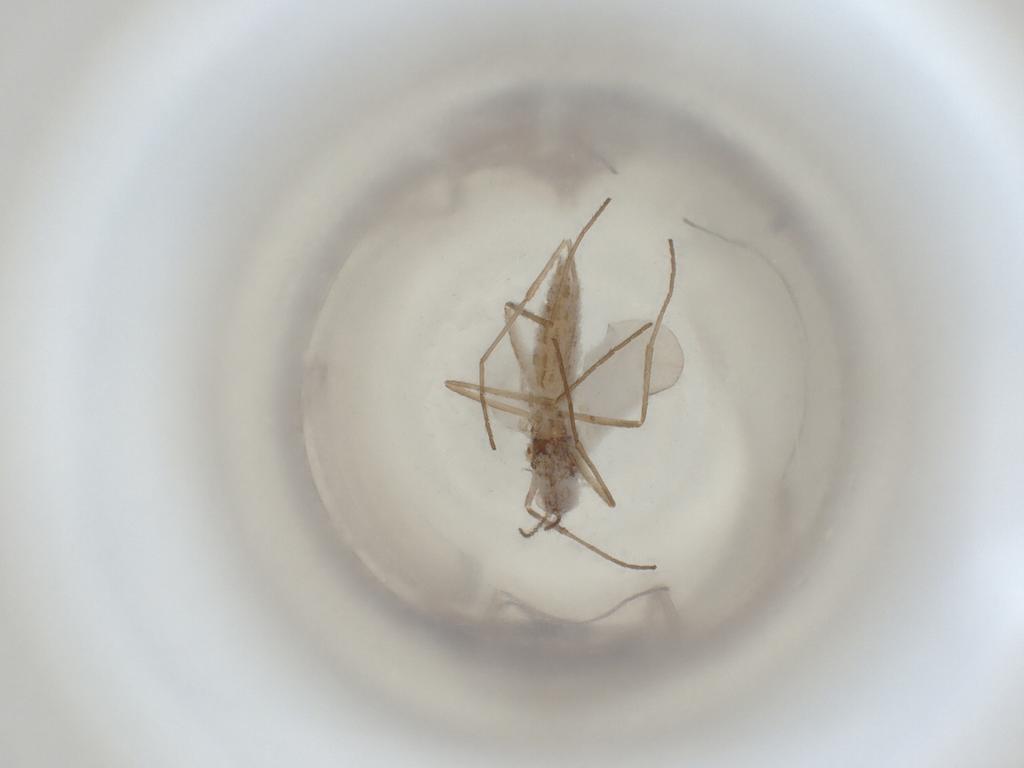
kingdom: Animalia
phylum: Arthropoda
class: Insecta
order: Diptera
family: Cecidomyiidae
